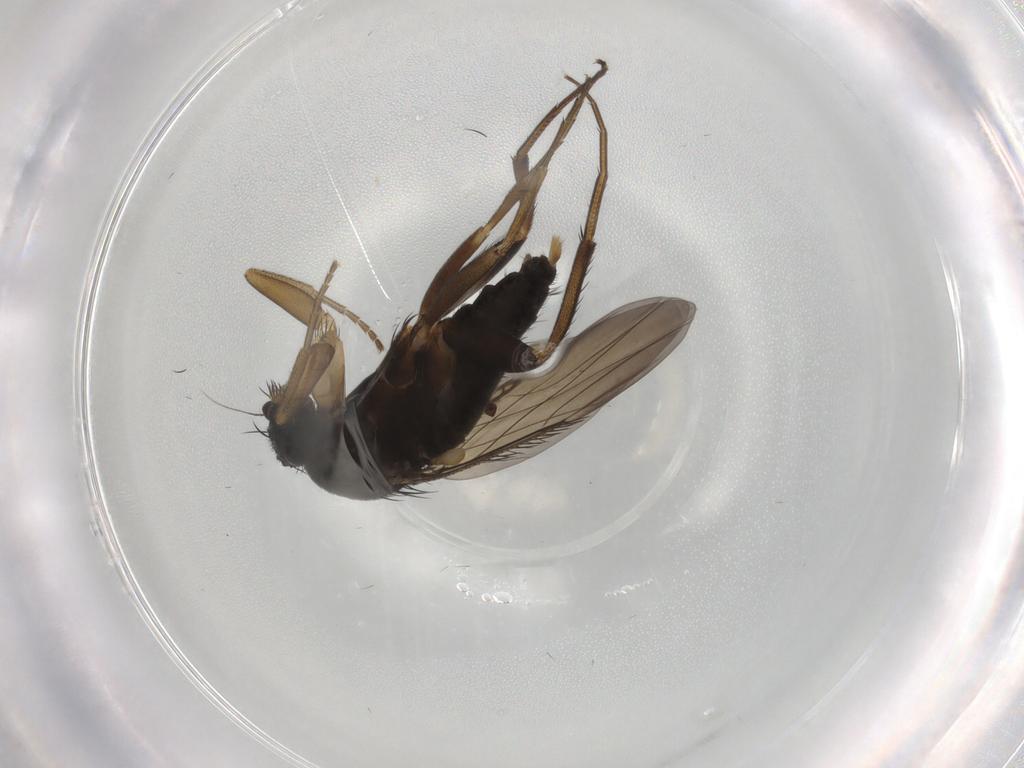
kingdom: Animalia
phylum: Arthropoda
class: Insecta
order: Diptera
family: Phoridae
